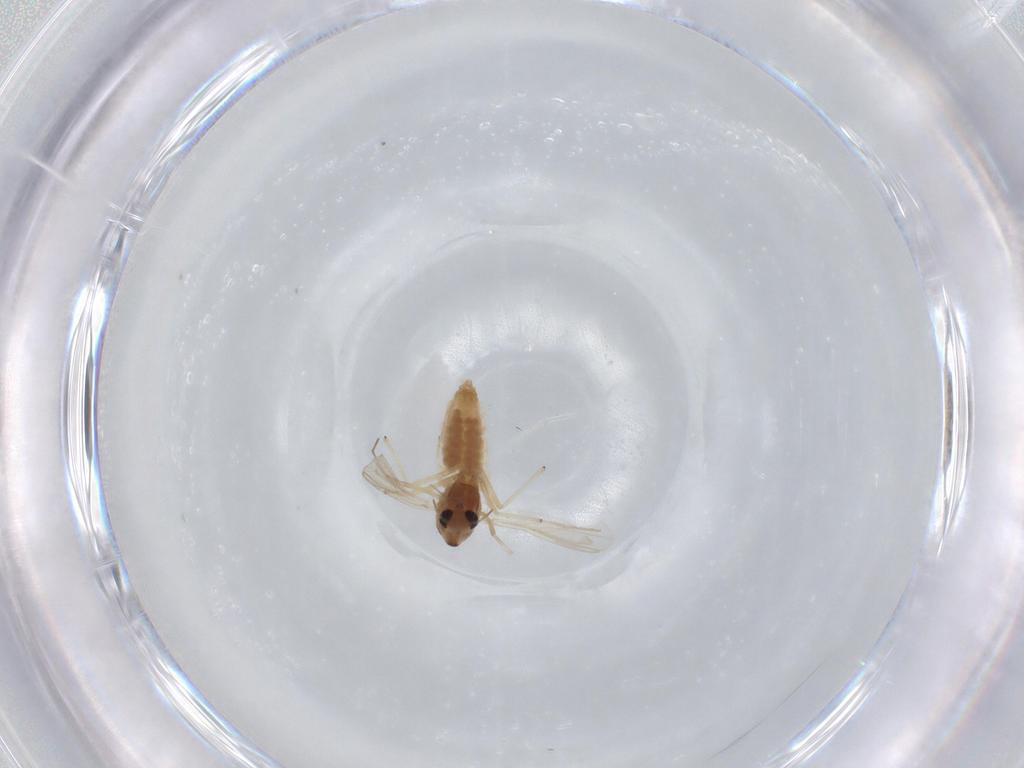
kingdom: Animalia
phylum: Arthropoda
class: Insecta
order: Diptera
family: Chironomidae
